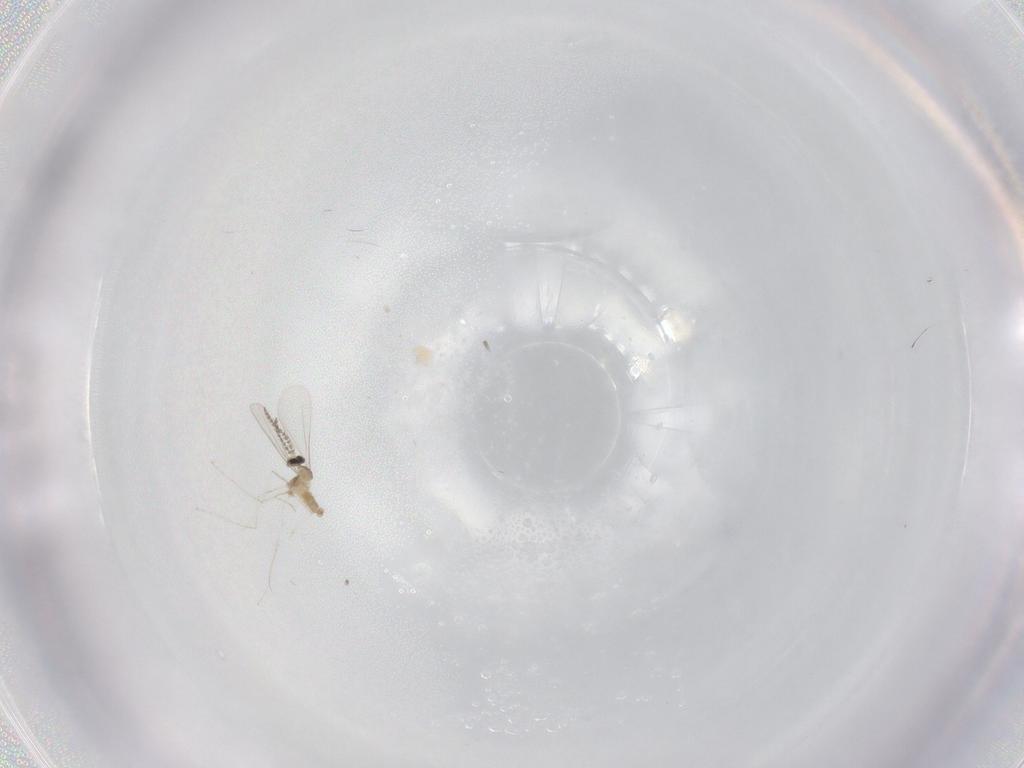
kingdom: Animalia
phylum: Arthropoda
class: Insecta
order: Diptera
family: Cecidomyiidae
